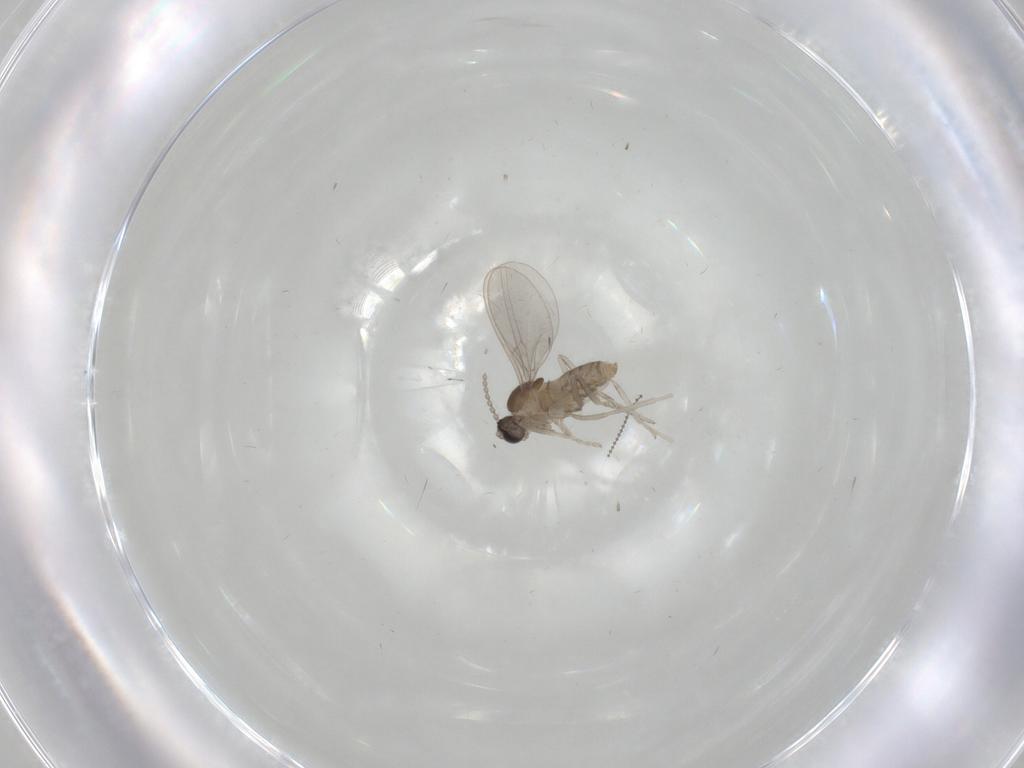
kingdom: Animalia
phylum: Arthropoda
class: Insecta
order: Diptera
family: Cecidomyiidae
